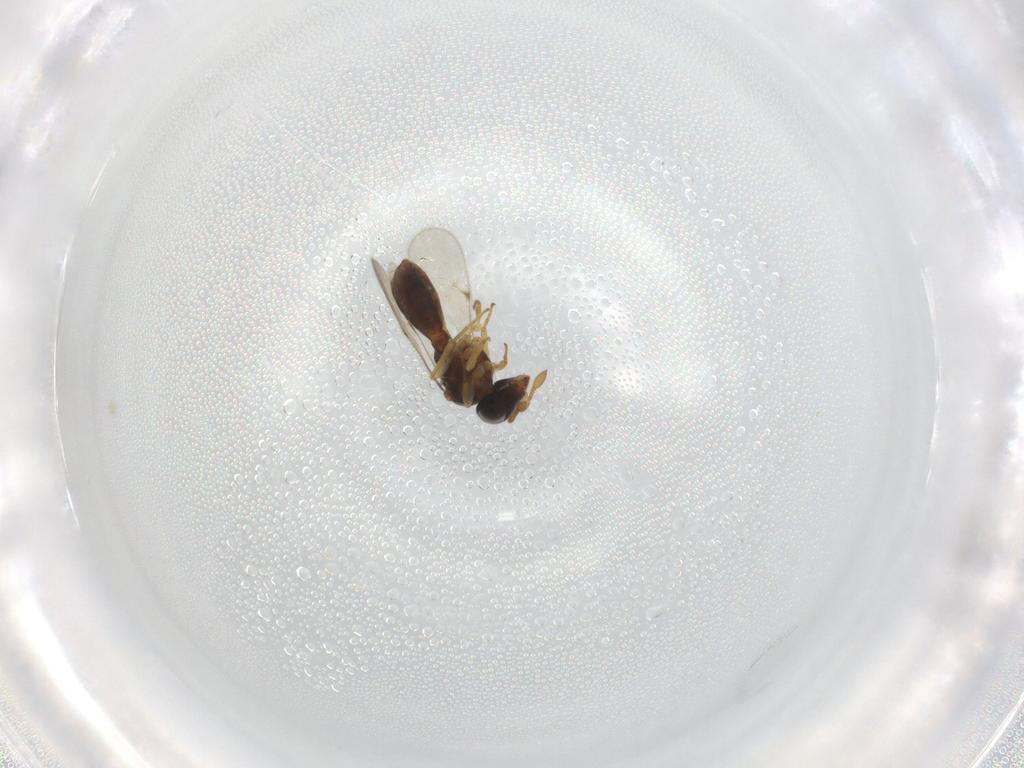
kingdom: Animalia
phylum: Arthropoda
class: Insecta
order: Hymenoptera
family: Scelionidae
